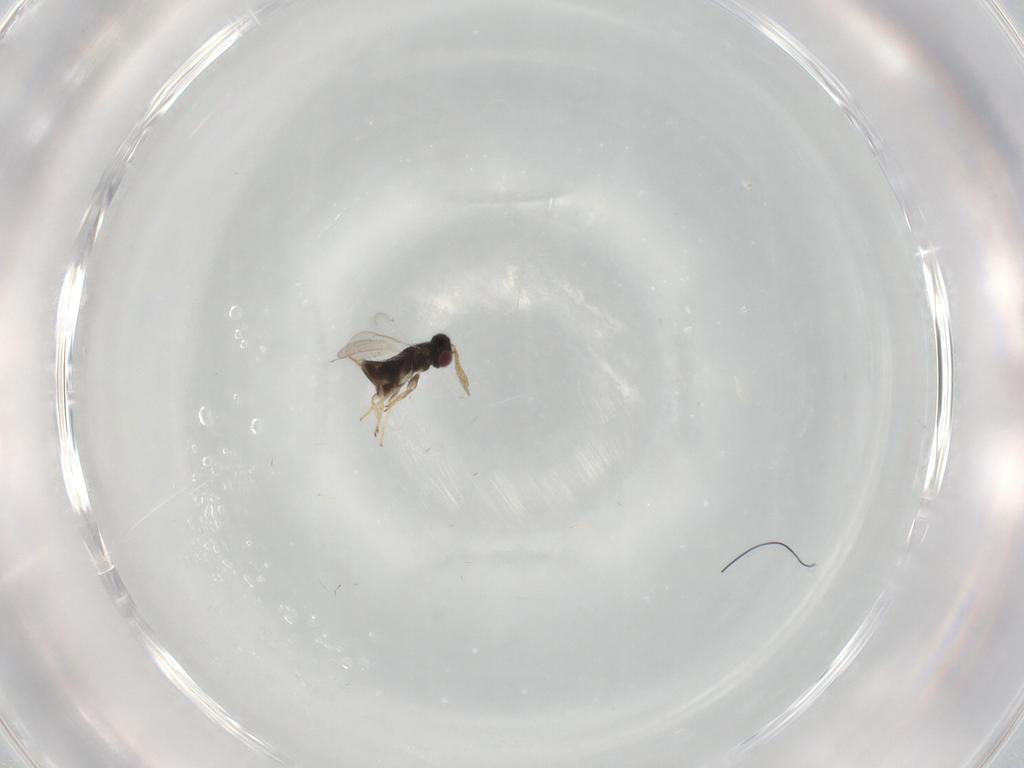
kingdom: Animalia
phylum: Arthropoda
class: Insecta
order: Hymenoptera
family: Aphelinidae
